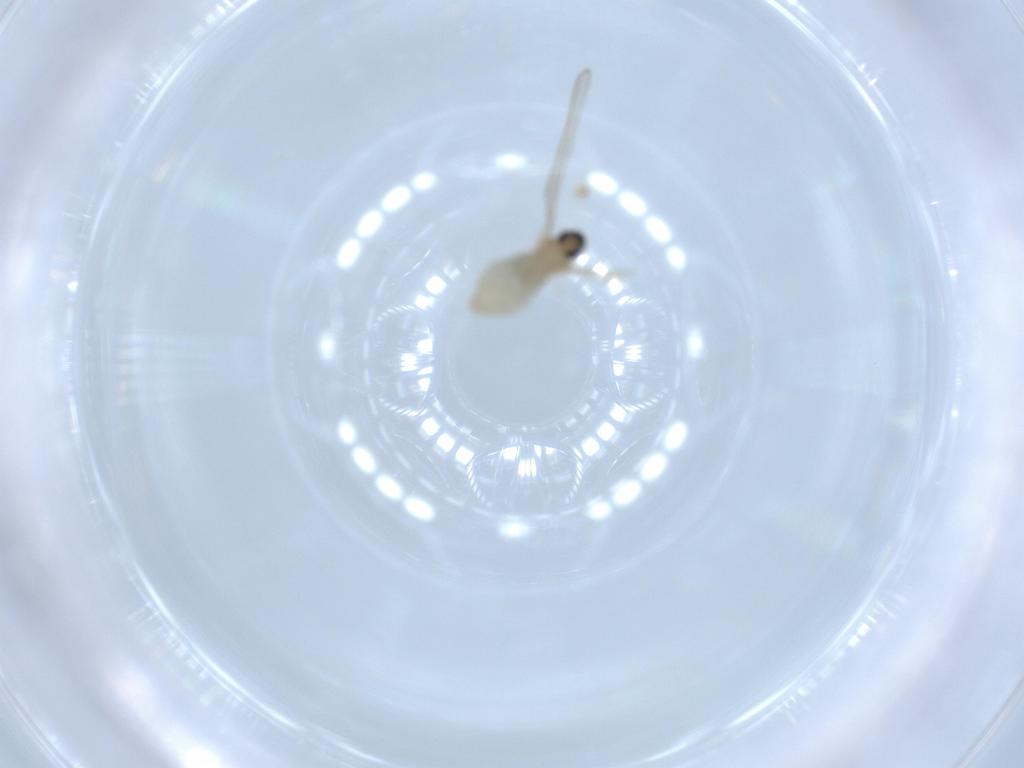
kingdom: Animalia
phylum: Arthropoda
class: Insecta
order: Diptera
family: Cecidomyiidae
